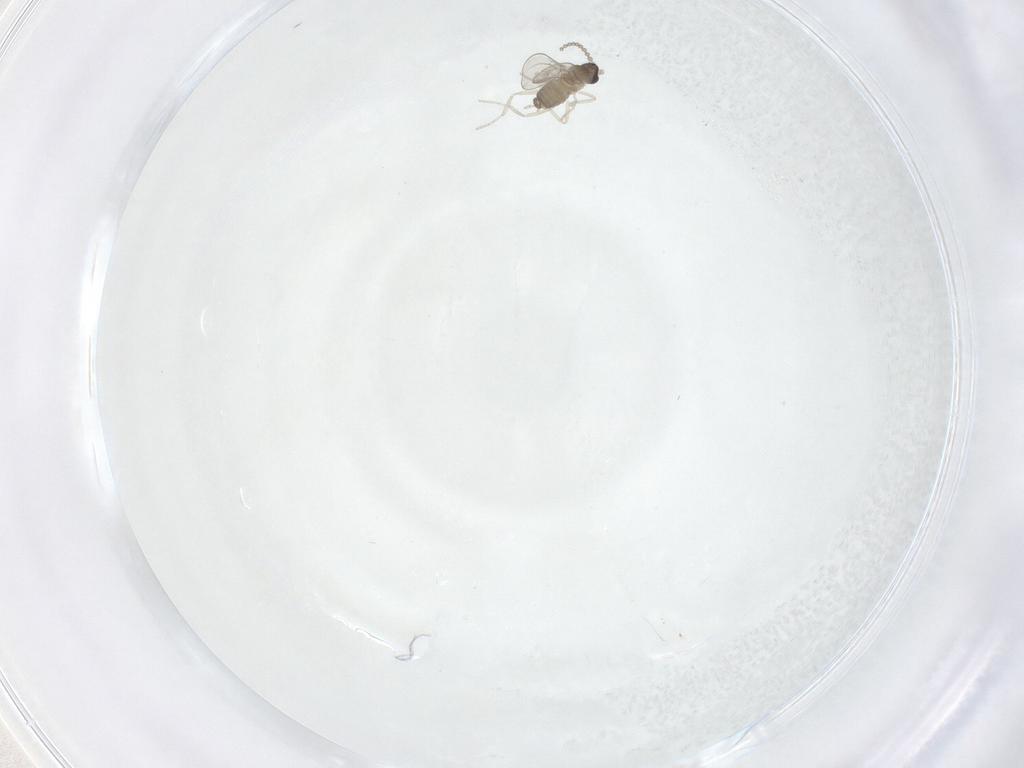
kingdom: Animalia
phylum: Arthropoda
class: Insecta
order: Diptera
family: Cecidomyiidae
